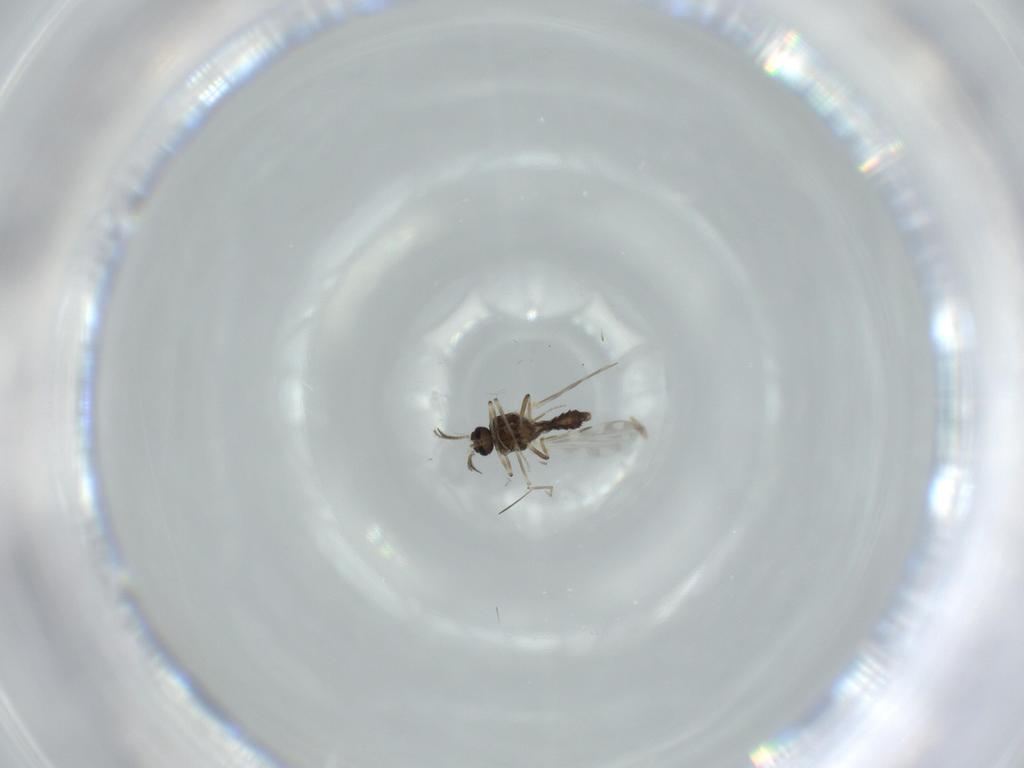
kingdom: Animalia
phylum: Arthropoda
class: Insecta
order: Diptera
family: Ceratopogonidae
